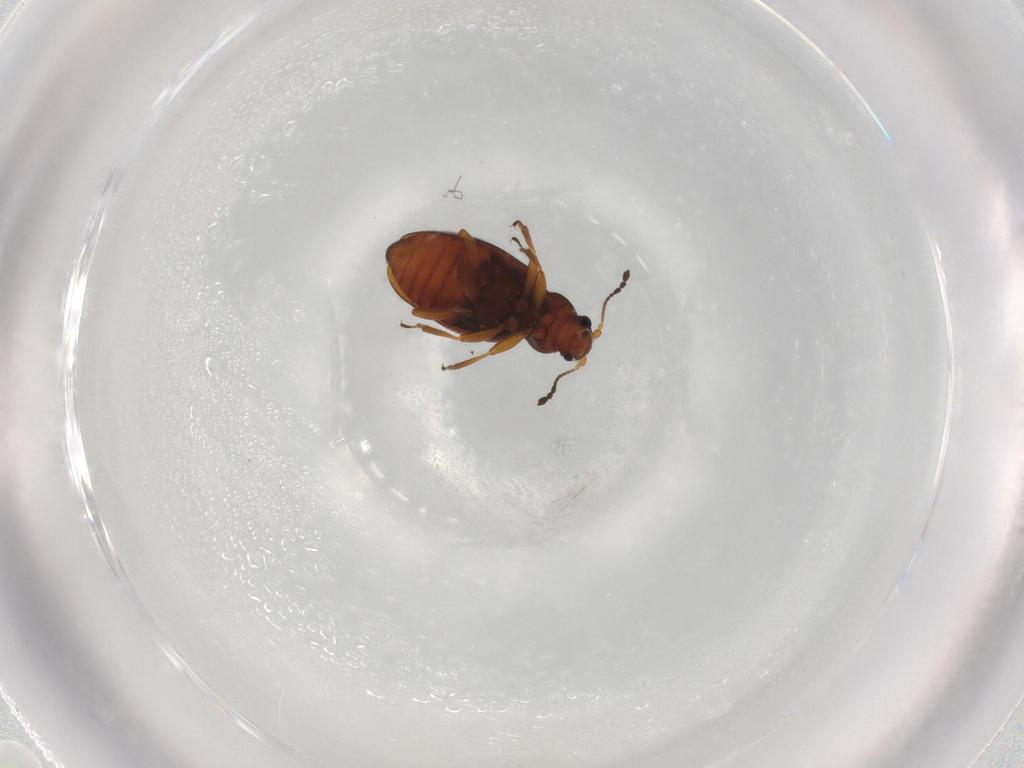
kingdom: Animalia
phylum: Arthropoda
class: Insecta
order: Coleoptera
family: Latridiidae
